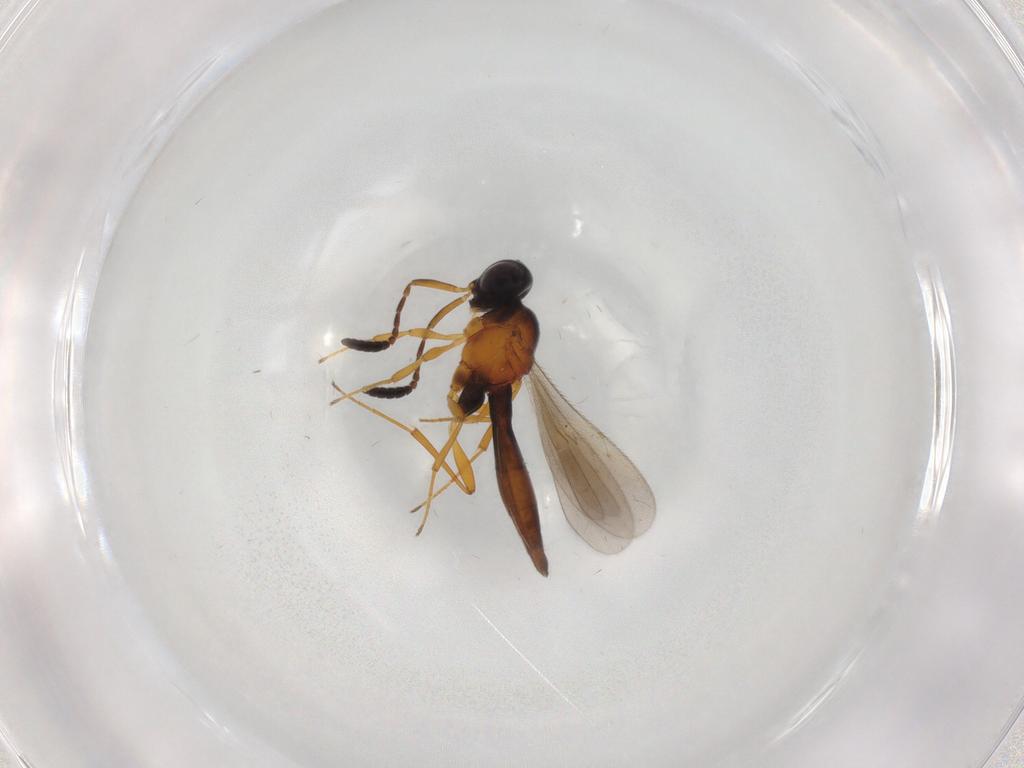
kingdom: Animalia
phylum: Arthropoda
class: Insecta
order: Hymenoptera
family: Scelionidae
